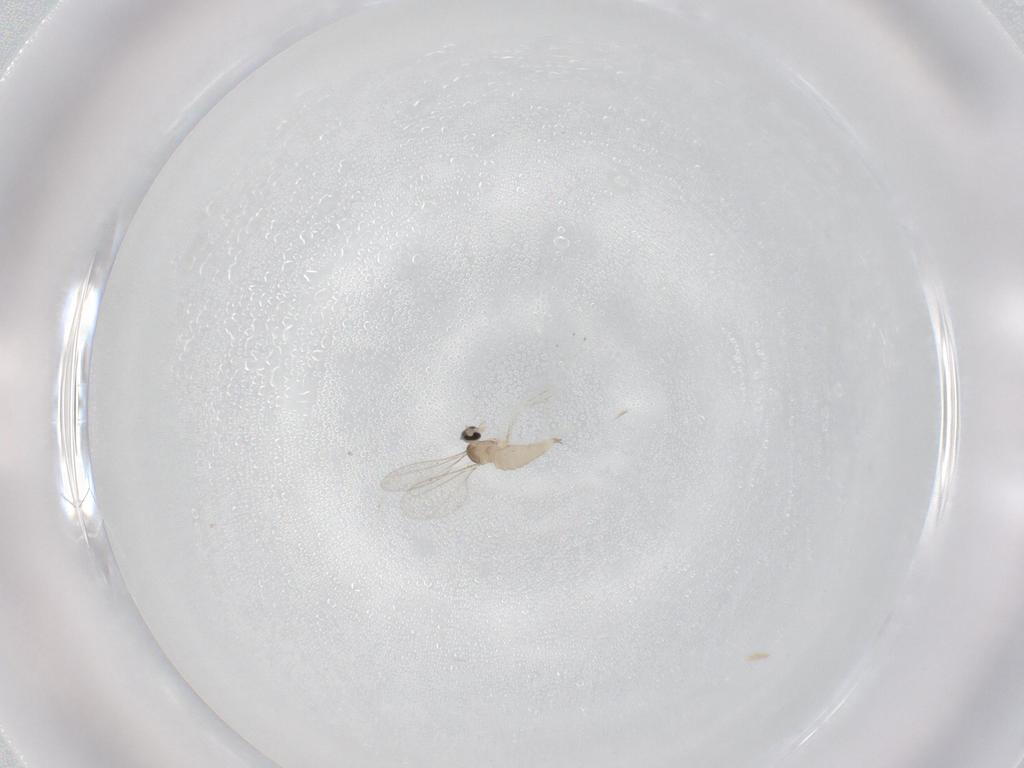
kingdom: Animalia
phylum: Arthropoda
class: Insecta
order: Diptera
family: Cecidomyiidae
